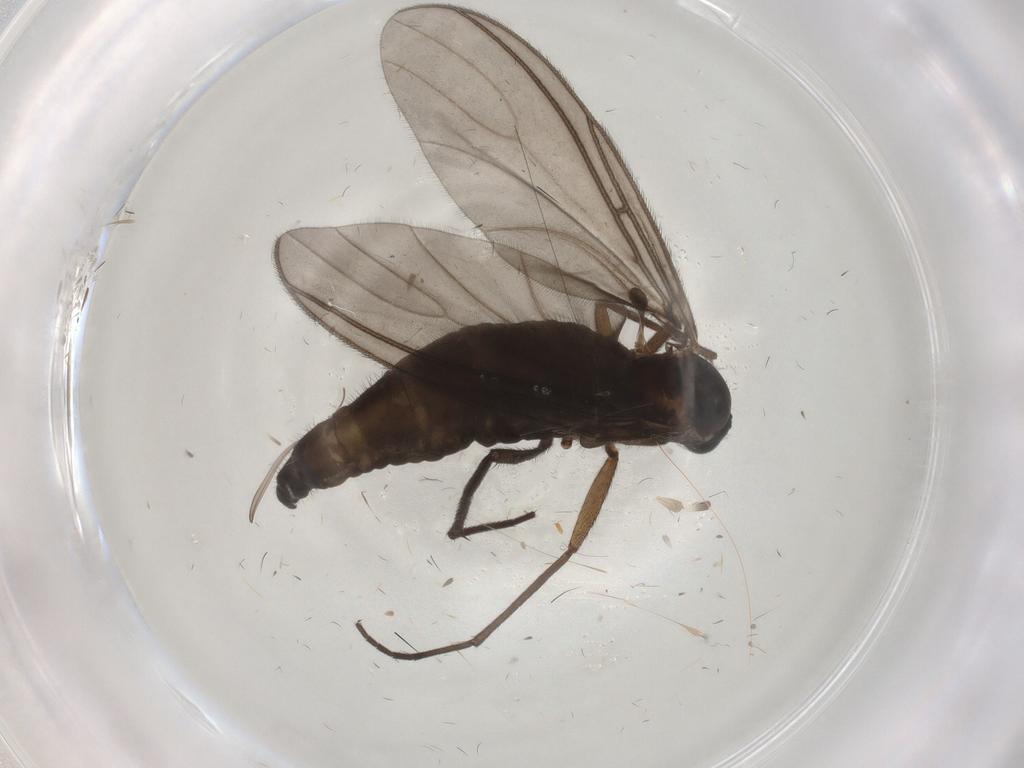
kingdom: Animalia
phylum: Arthropoda
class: Insecta
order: Diptera
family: Sciaridae
